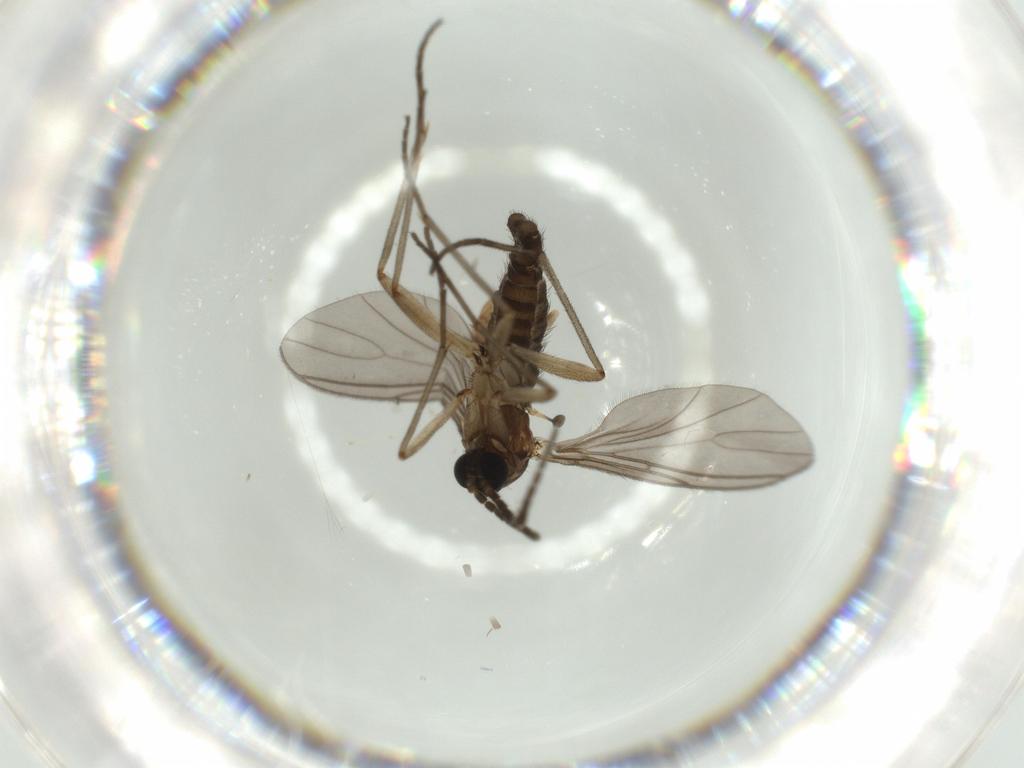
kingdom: Animalia
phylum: Arthropoda
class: Insecta
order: Diptera
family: Sciaridae
